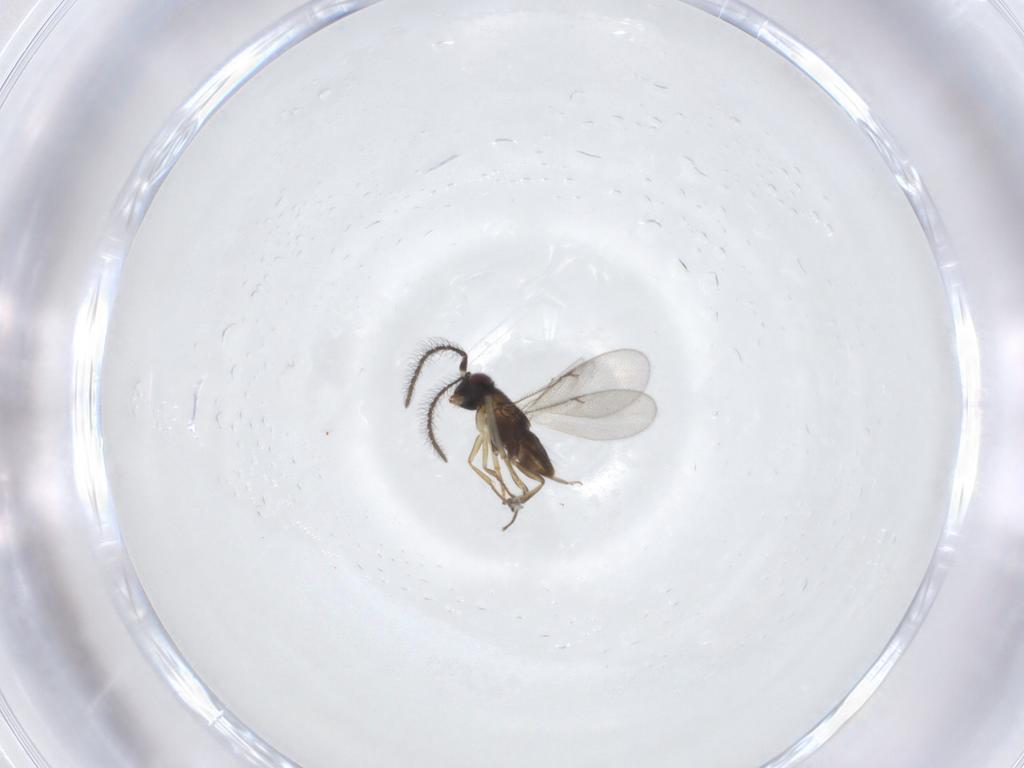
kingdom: Animalia
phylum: Arthropoda
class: Insecta
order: Hymenoptera
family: Encyrtidae
